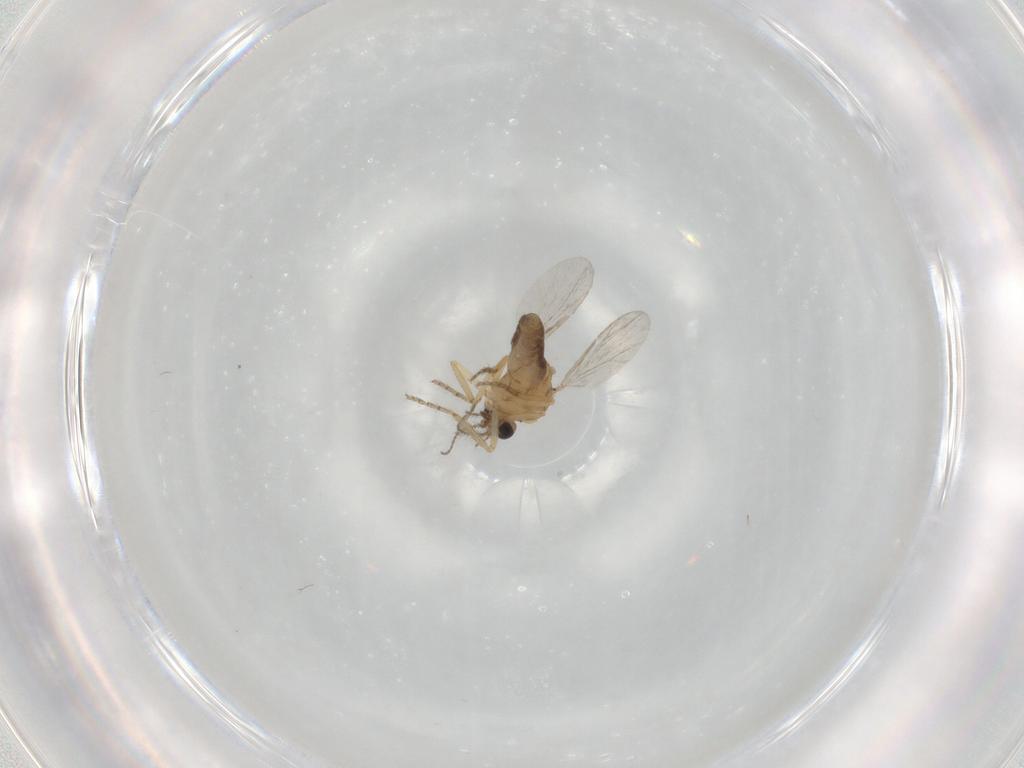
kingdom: Animalia
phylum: Arthropoda
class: Insecta
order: Diptera
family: Ceratopogonidae
